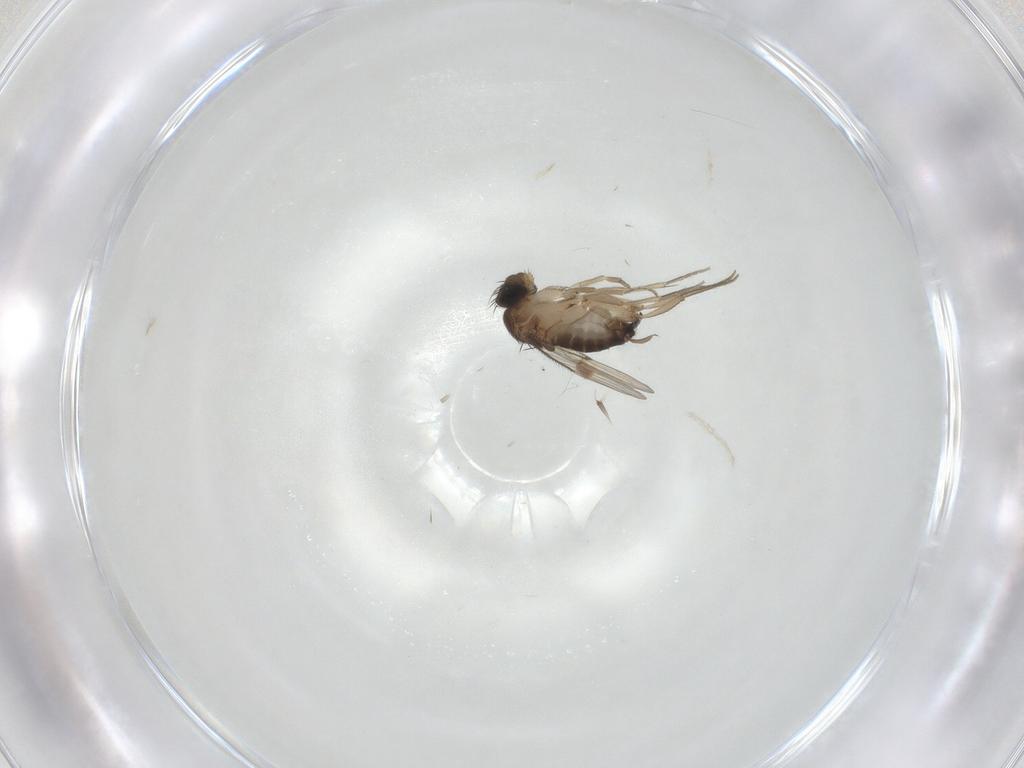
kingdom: Animalia
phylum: Arthropoda
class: Insecta
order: Diptera
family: Phoridae
